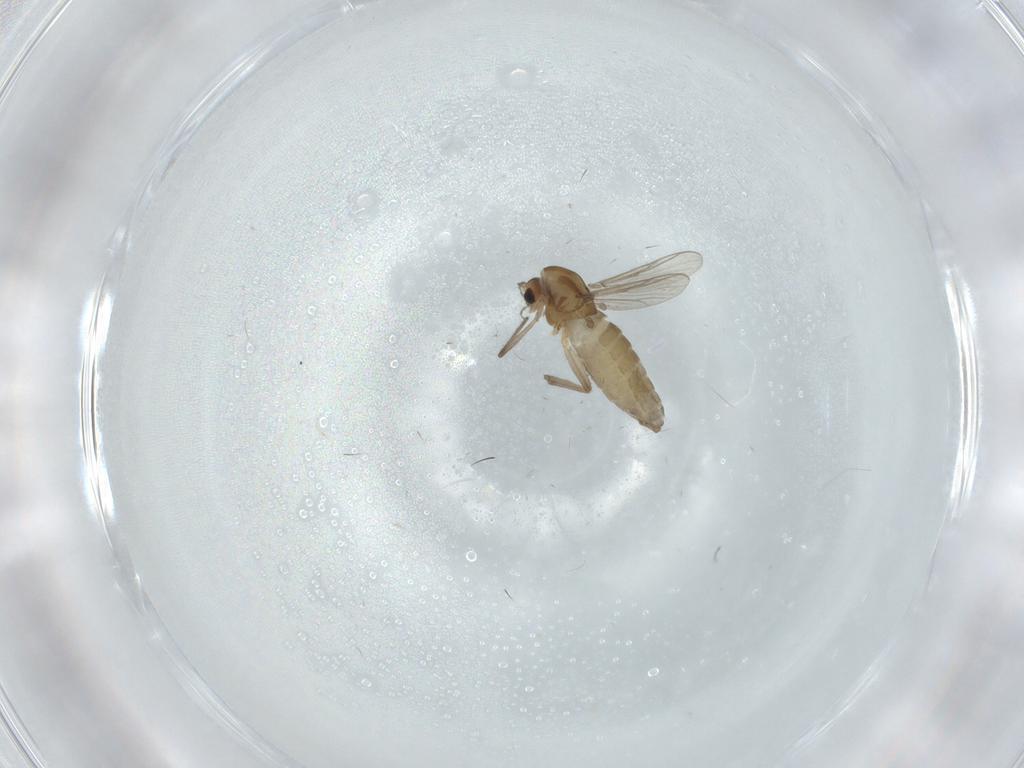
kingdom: Animalia
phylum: Arthropoda
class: Insecta
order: Diptera
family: Chironomidae
